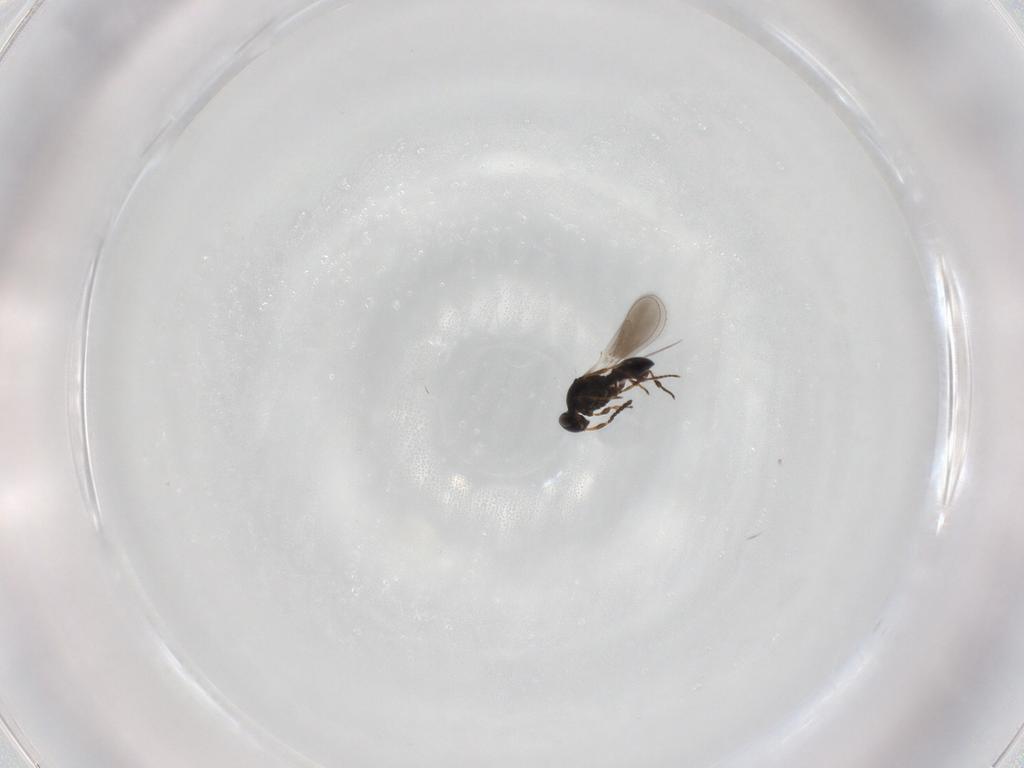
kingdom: Animalia
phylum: Arthropoda
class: Insecta
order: Hymenoptera
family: Platygastridae
